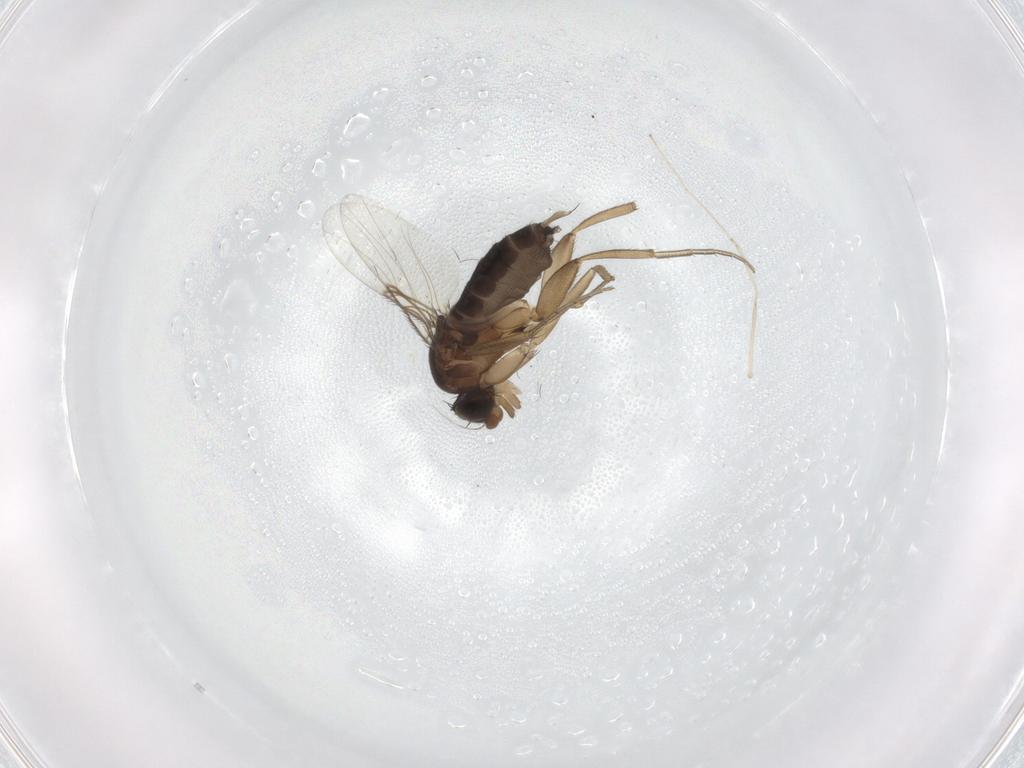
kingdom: Animalia
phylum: Arthropoda
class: Insecta
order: Diptera
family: Phoridae
